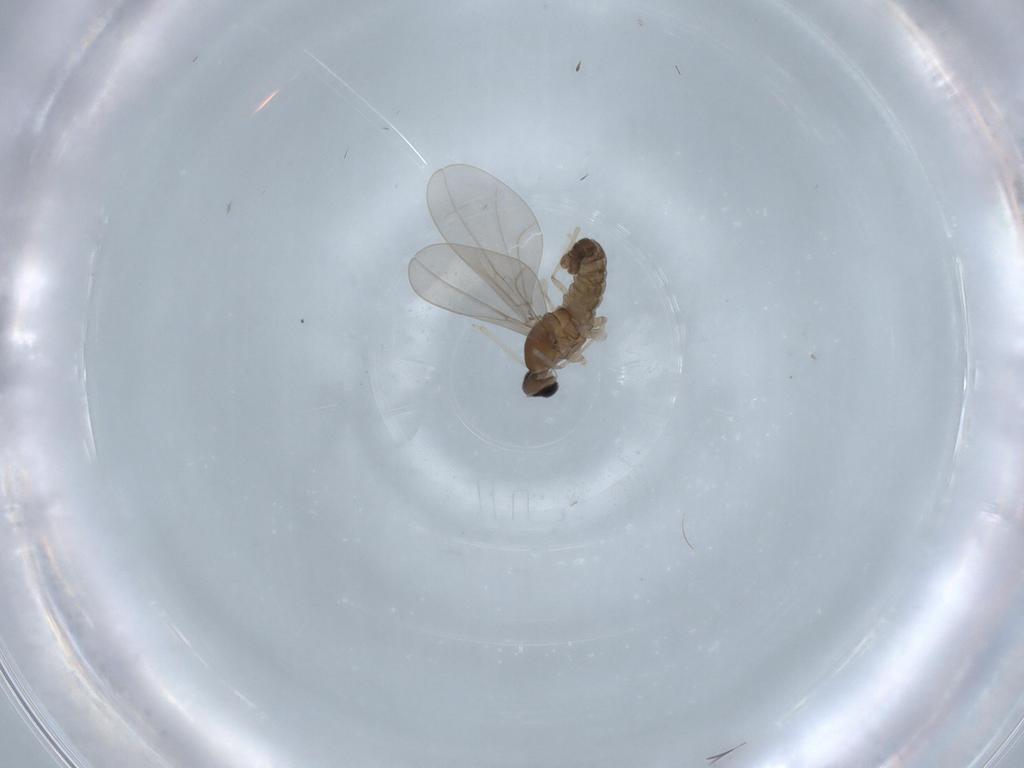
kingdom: Animalia
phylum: Arthropoda
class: Insecta
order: Diptera
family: Cecidomyiidae
